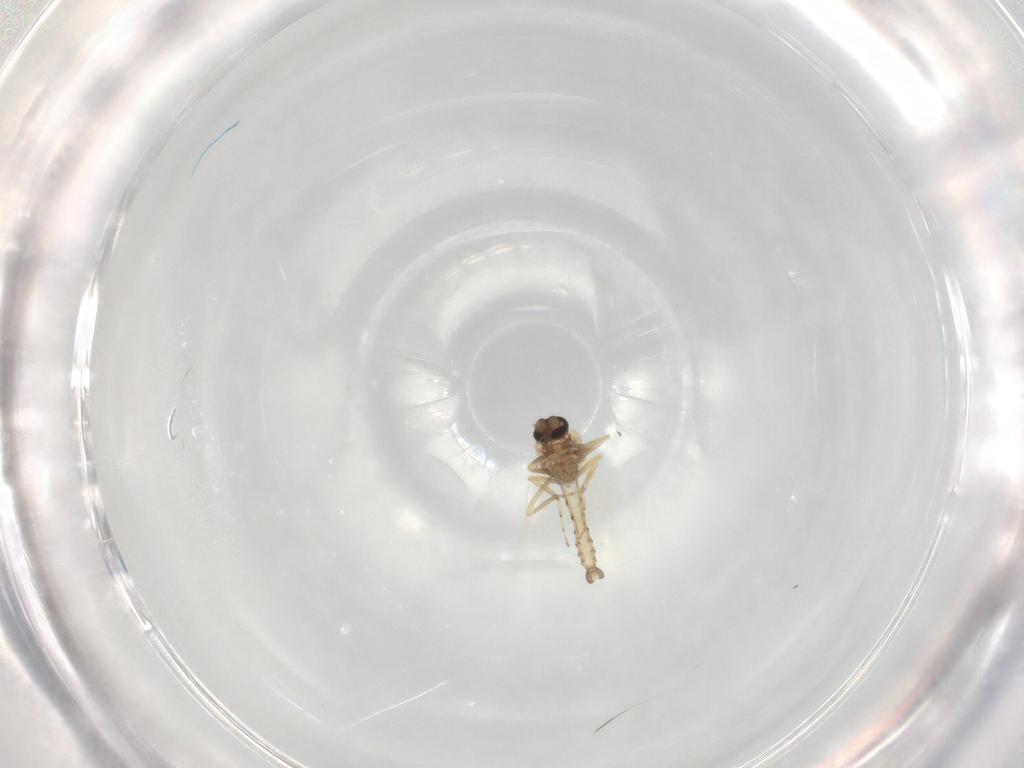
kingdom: Animalia
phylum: Arthropoda
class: Insecta
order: Diptera
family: Ceratopogonidae
